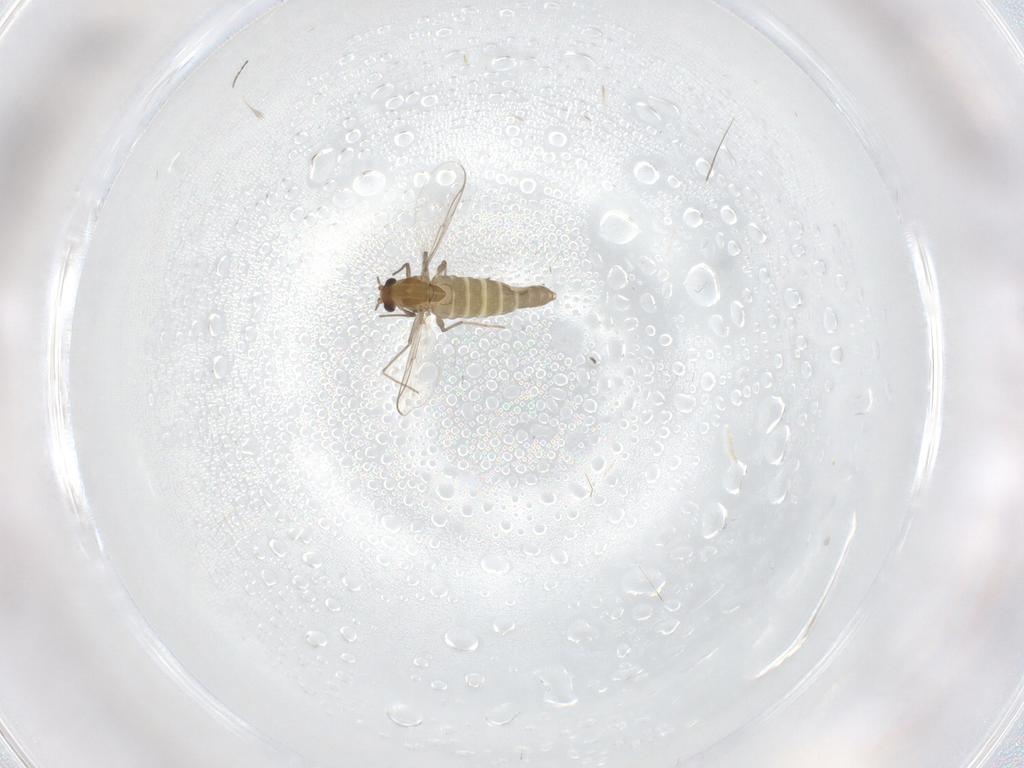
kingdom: Animalia
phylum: Arthropoda
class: Insecta
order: Diptera
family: Chironomidae
